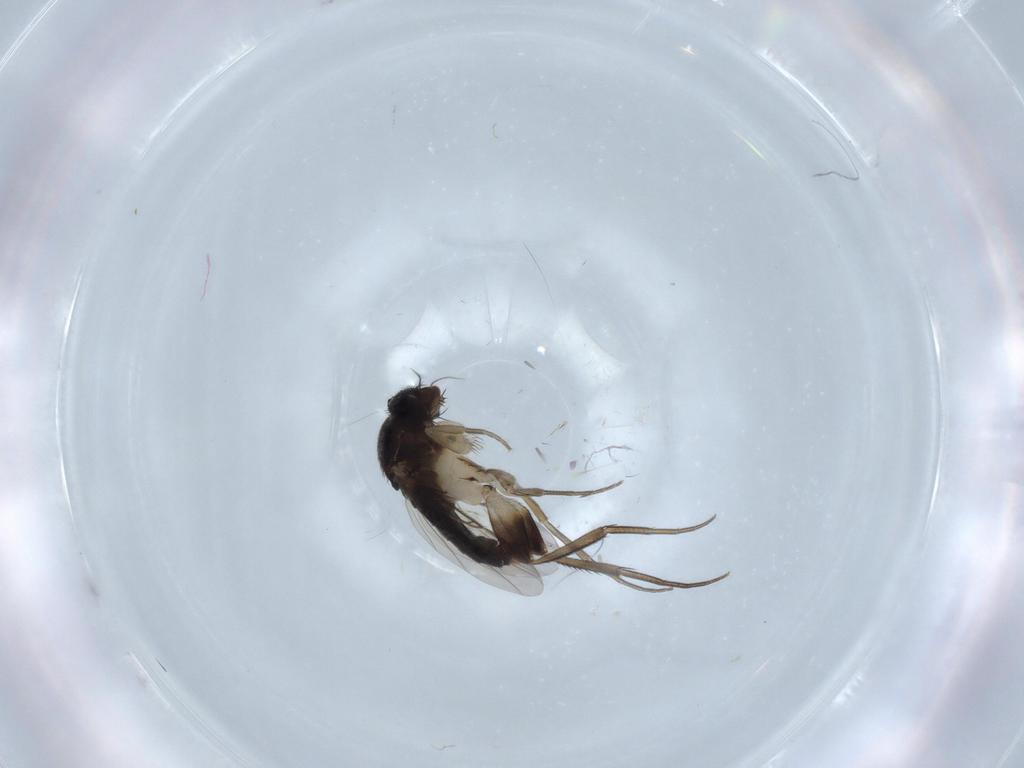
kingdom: Animalia
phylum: Arthropoda
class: Insecta
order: Diptera
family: Phoridae
